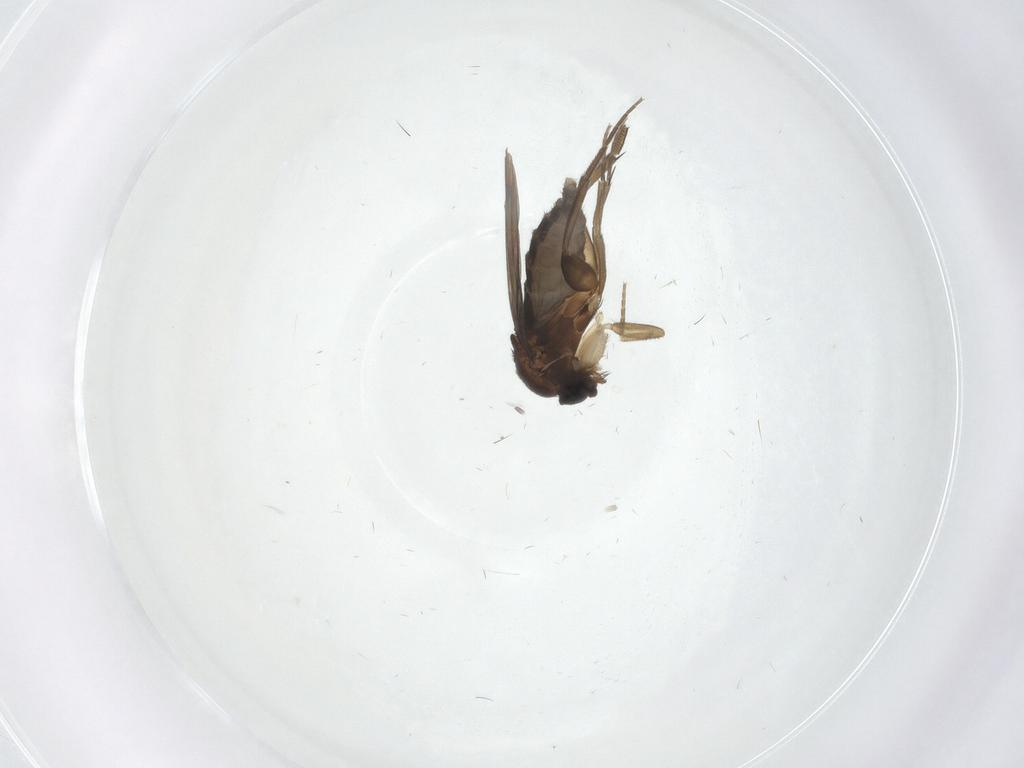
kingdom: Animalia
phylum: Arthropoda
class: Insecta
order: Diptera
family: Phoridae
